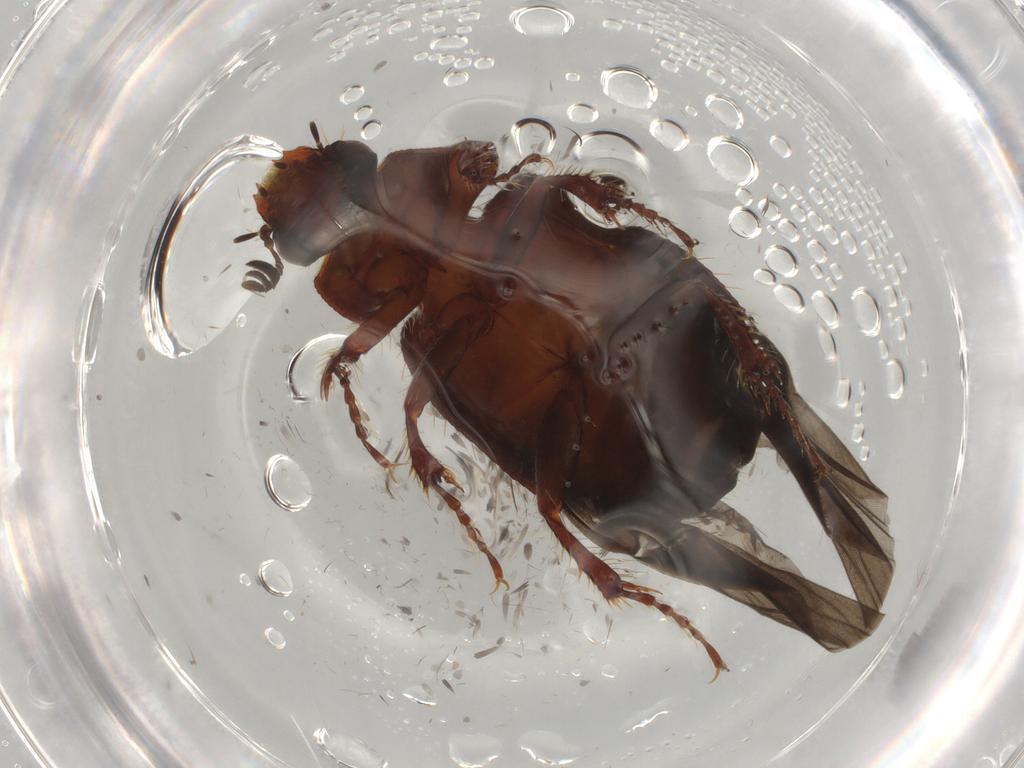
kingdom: Animalia
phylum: Arthropoda
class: Insecta
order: Coleoptera
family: Hybosoridae
